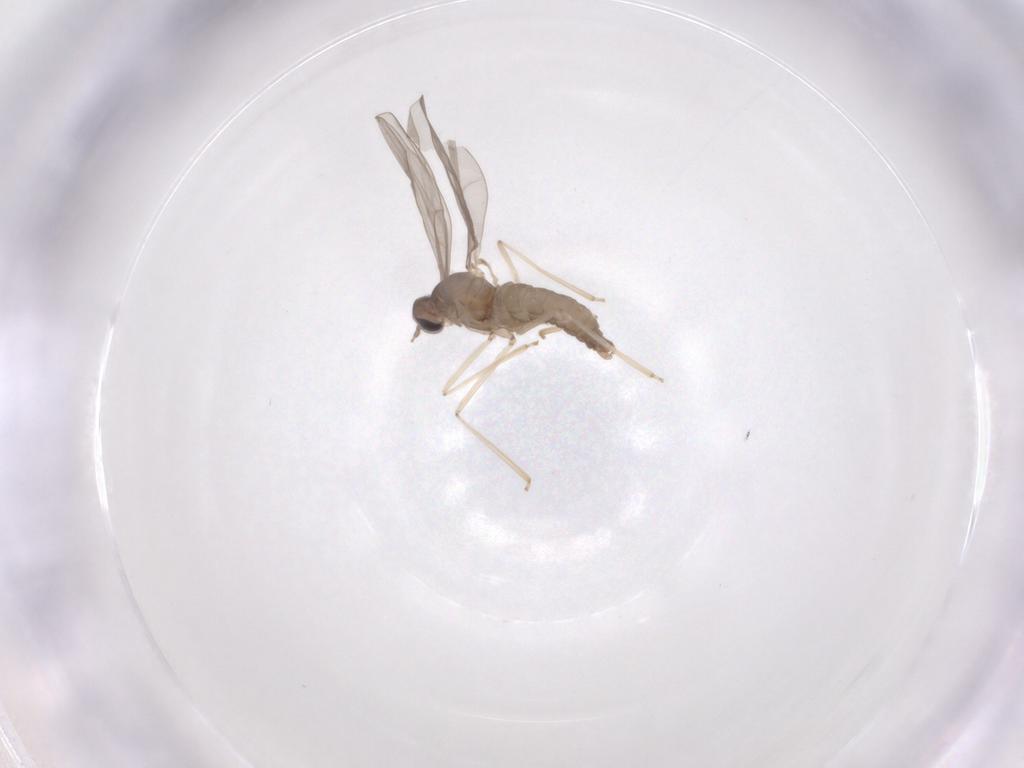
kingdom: Animalia
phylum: Arthropoda
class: Insecta
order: Diptera
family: Cecidomyiidae
